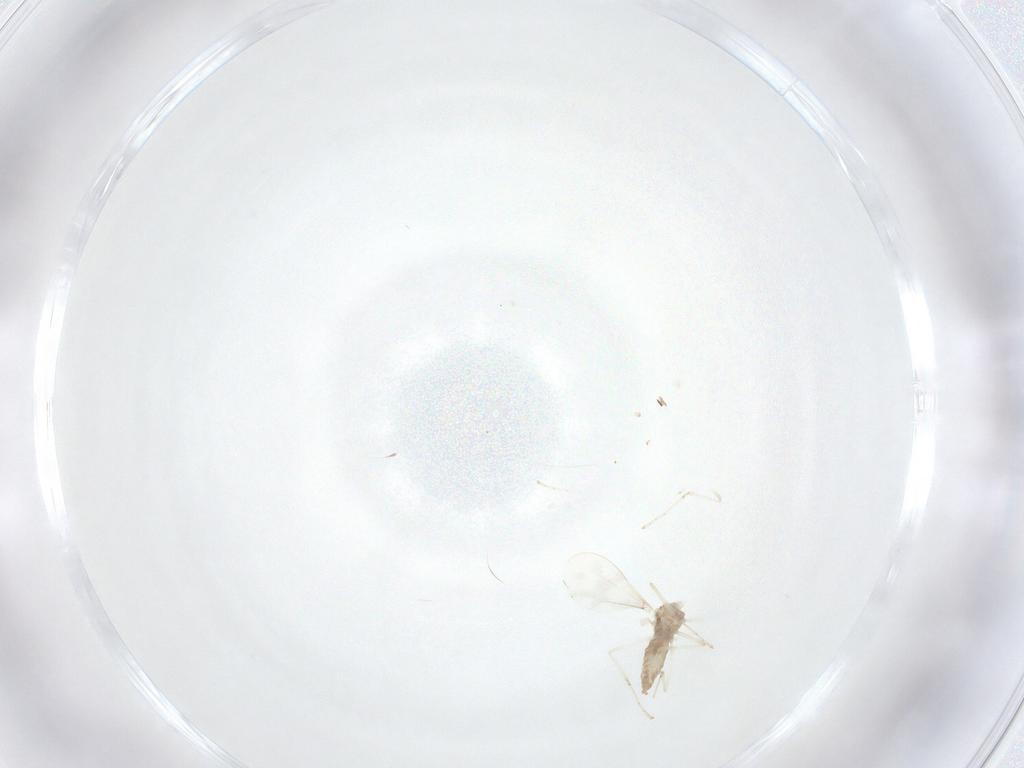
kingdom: Animalia
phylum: Arthropoda
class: Insecta
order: Diptera
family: Cecidomyiidae
